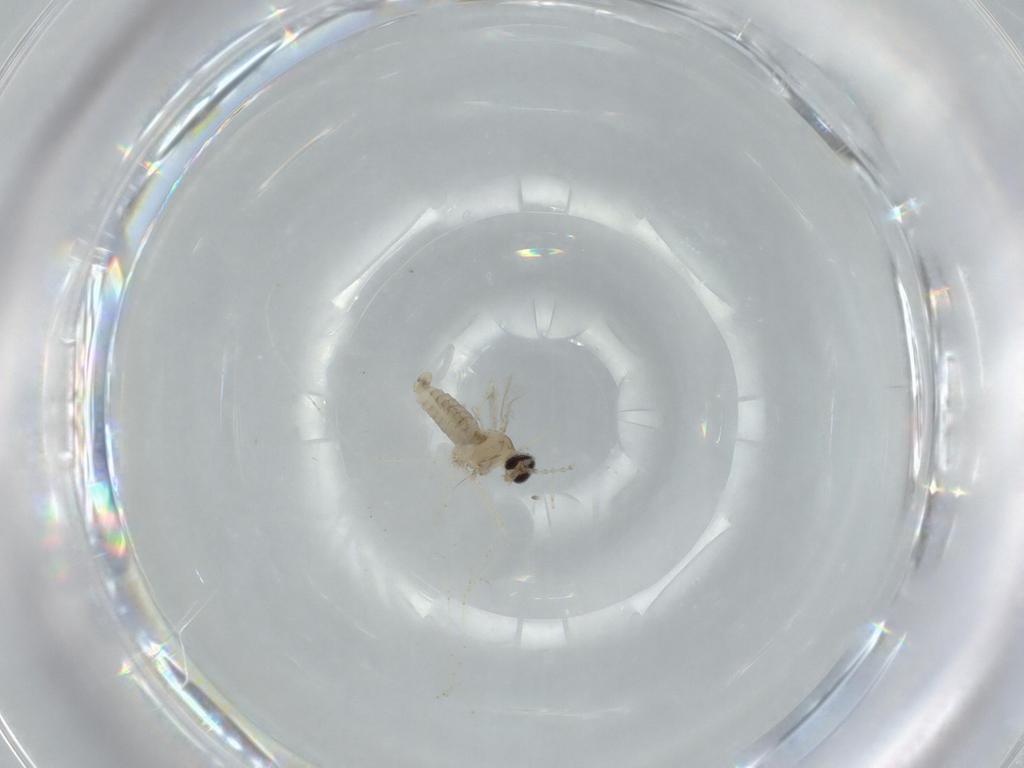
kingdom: Animalia
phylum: Arthropoda
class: Insecta
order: Diptera
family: Cecidomyiidae
